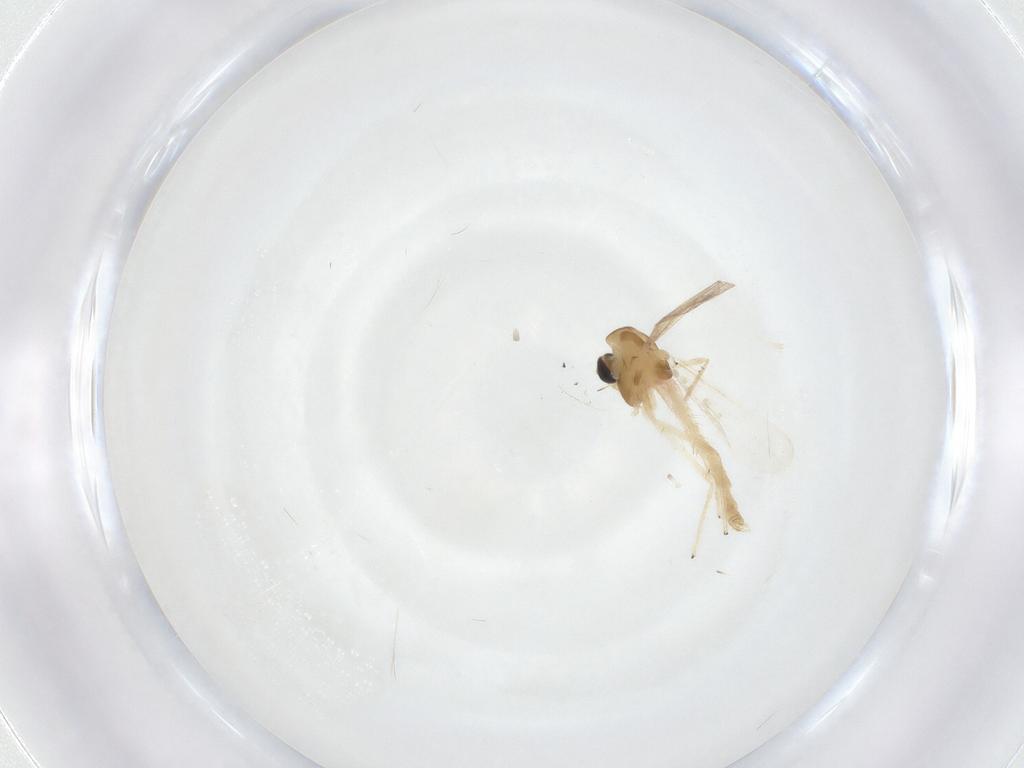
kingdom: Animalia
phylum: Arthropoda
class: Insecta
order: Diptera
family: Chironomidae
